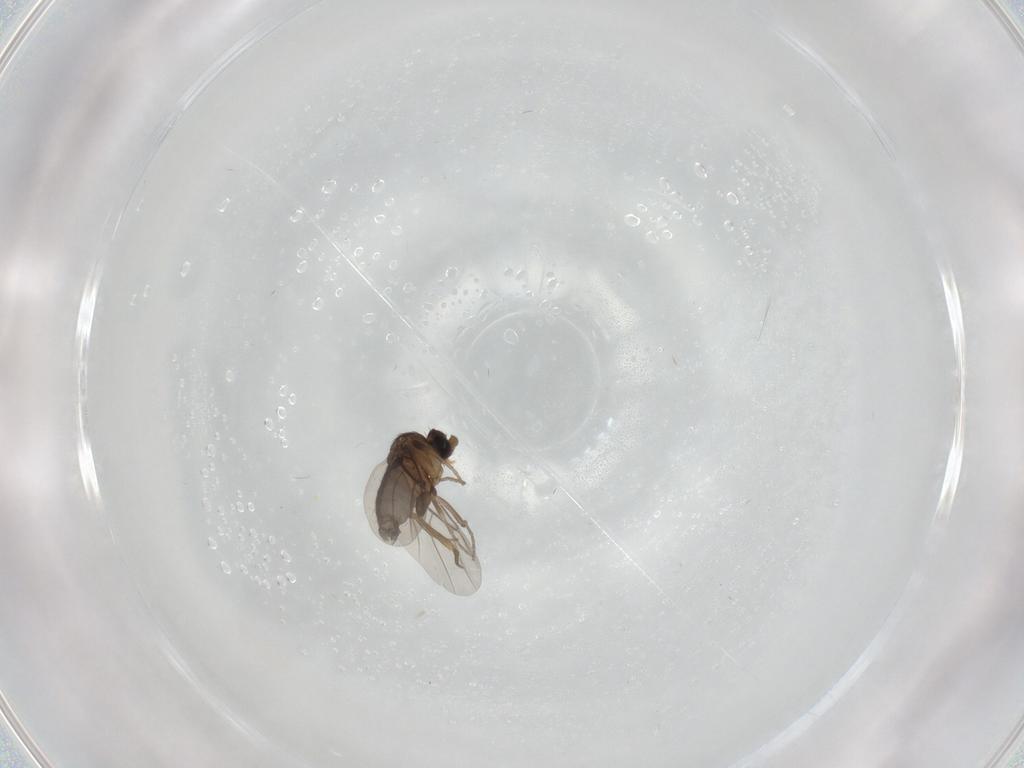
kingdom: Animalia
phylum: Arthropoda
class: Insecta
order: Diptera
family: Phoridae
